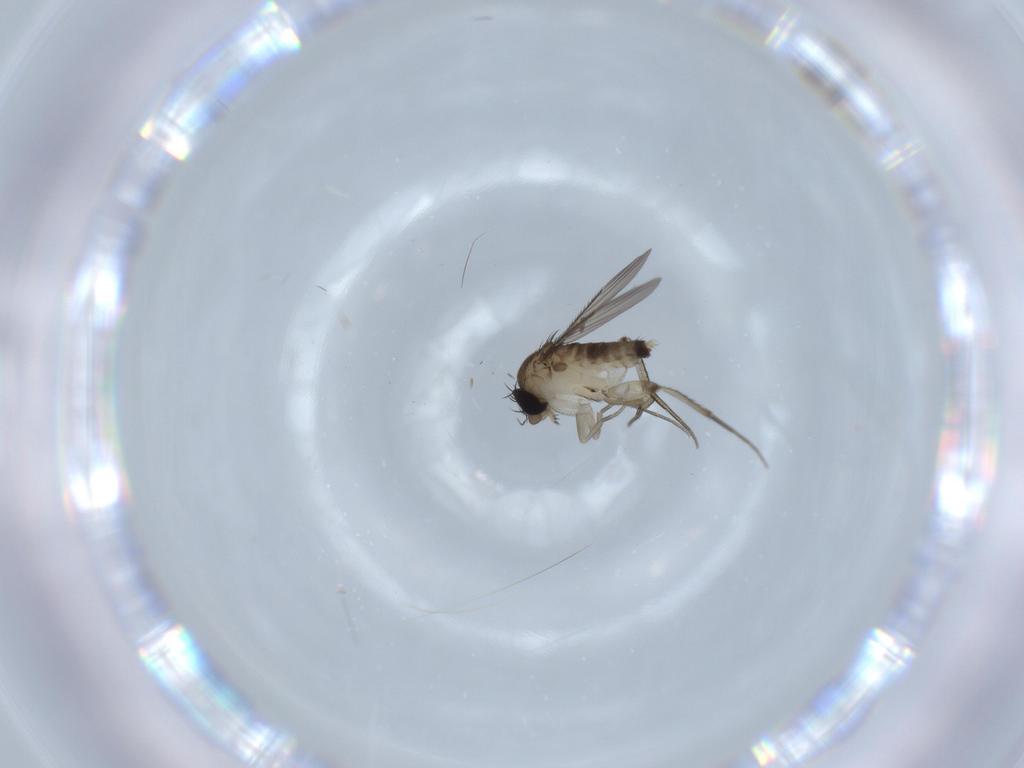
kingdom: Animalia
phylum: Arthropoda
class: Insecta
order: Diptera
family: Phoridae
